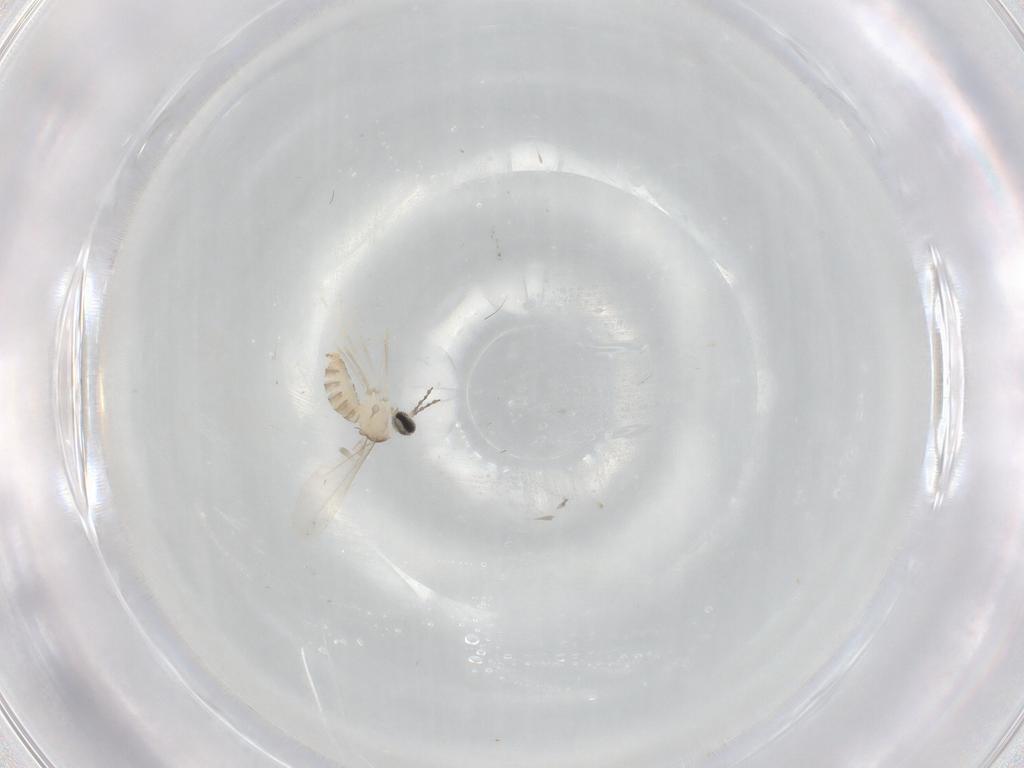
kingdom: Animalia
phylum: Arthropoda
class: Insecta
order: Diptera
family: Cecidomyiidae
